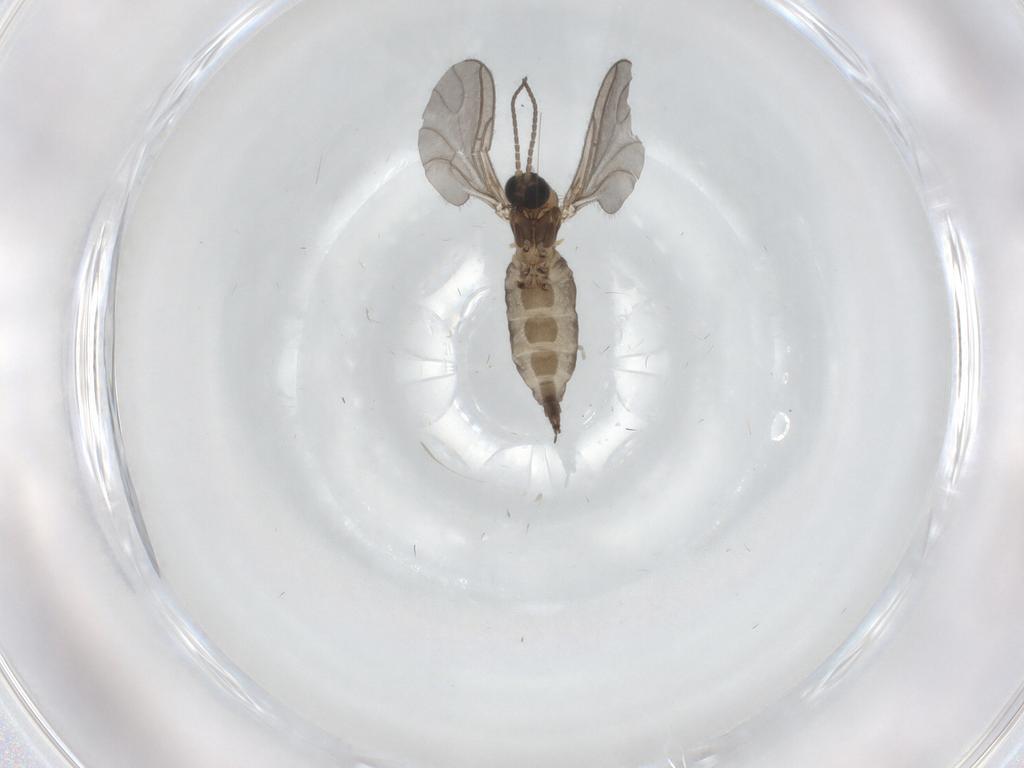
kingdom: Animalia
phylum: Arthropoda
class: Insecta
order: Diptera
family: Sciaridae
